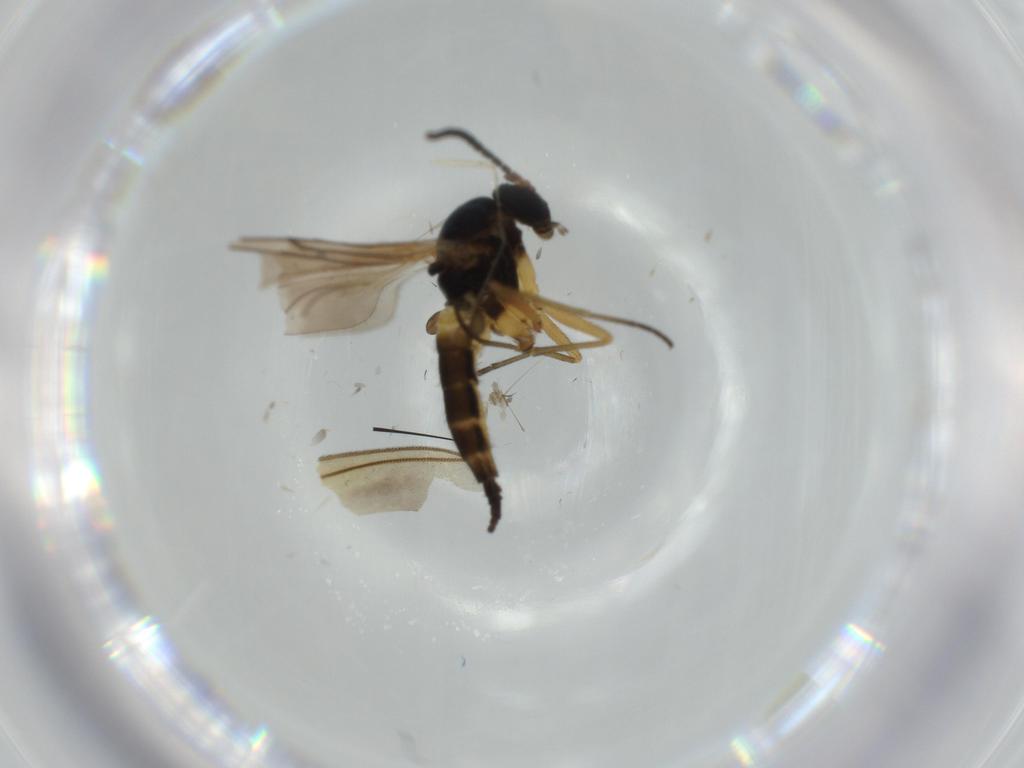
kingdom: Animalia
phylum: Arthropoda
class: Insecta
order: Diptera
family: Sciaridae
